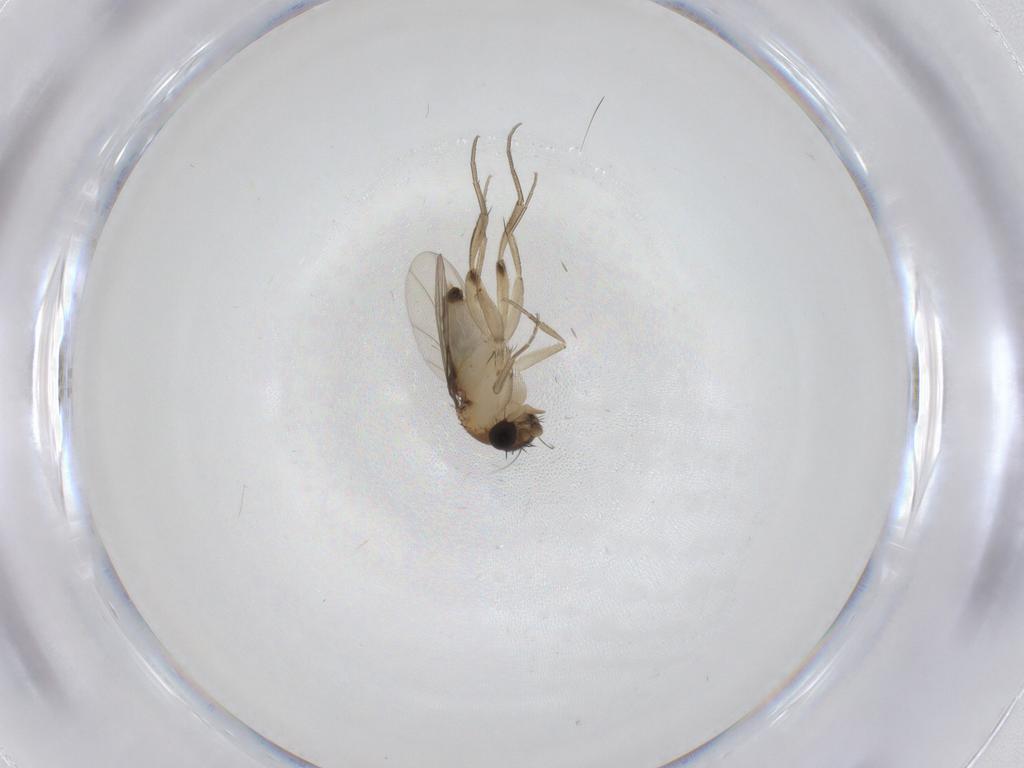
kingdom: Animalia
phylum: Arthropoda
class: Insecta
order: Diptera
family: Phoridae
